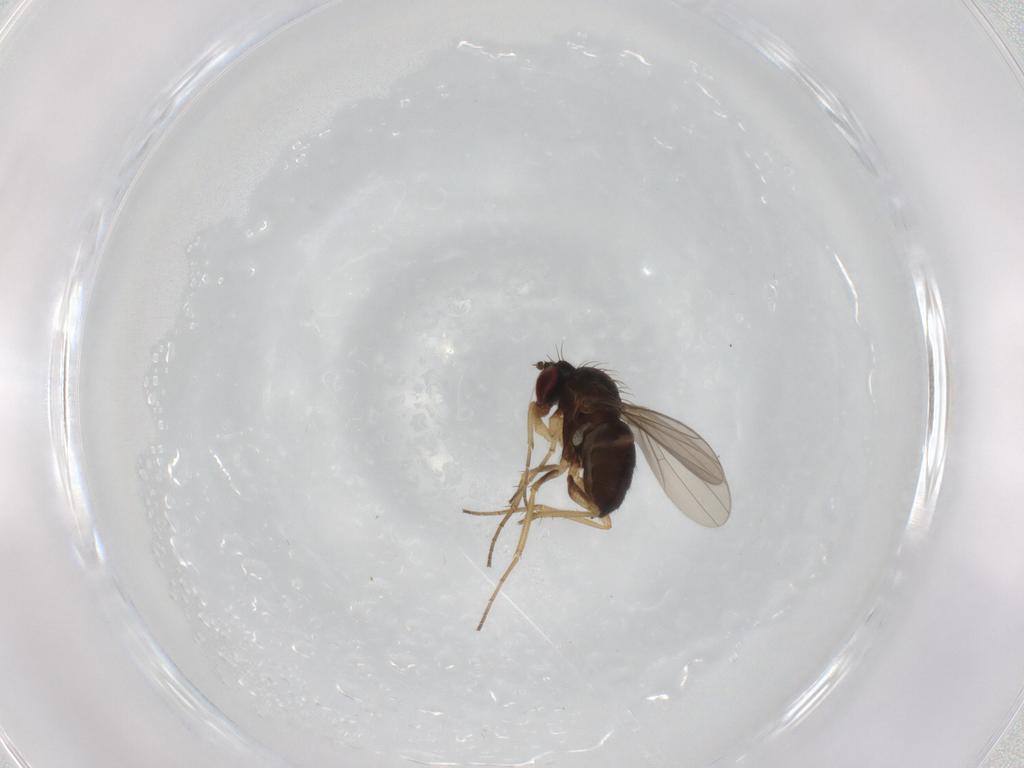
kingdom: Animalia
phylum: Arthropoda
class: Insecta
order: Diptera
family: Dolichopodidae
